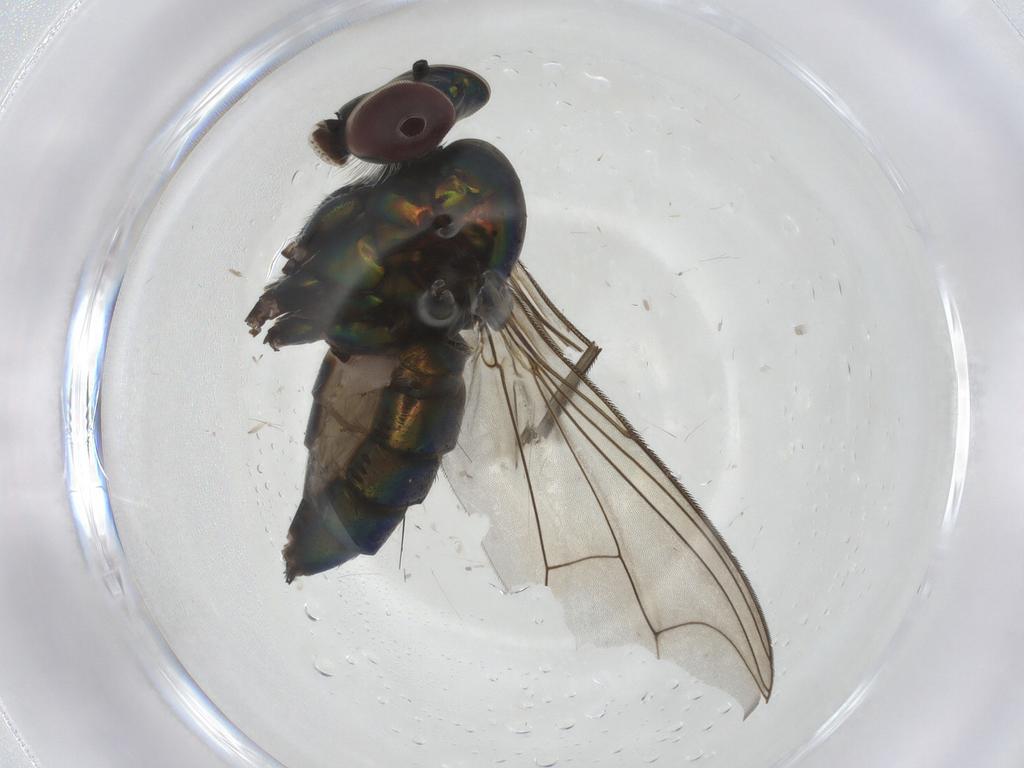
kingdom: Animalia
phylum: Arthropoda
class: Insecta
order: Diptera
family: Dolichopodidae
